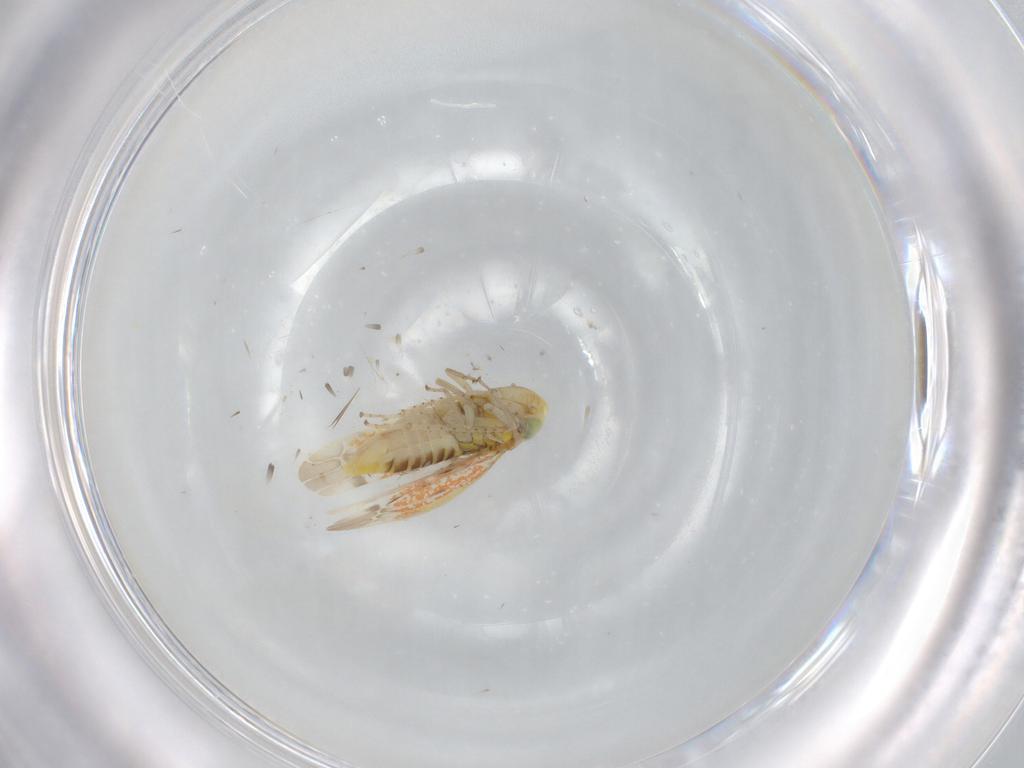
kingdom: Animalia
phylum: Arthropoda
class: Insecta
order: Hemiptera
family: Cicadellidae
